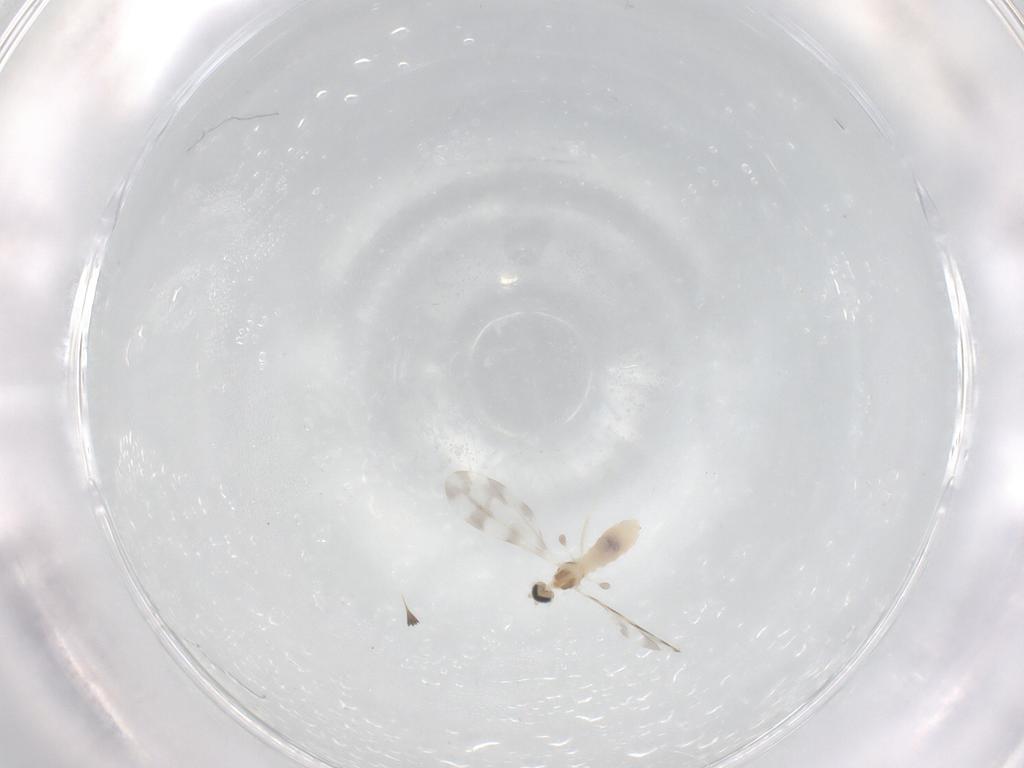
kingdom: Animalia
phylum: Arthropoda
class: Insecta
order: Diptera
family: Cecidomyiidae
